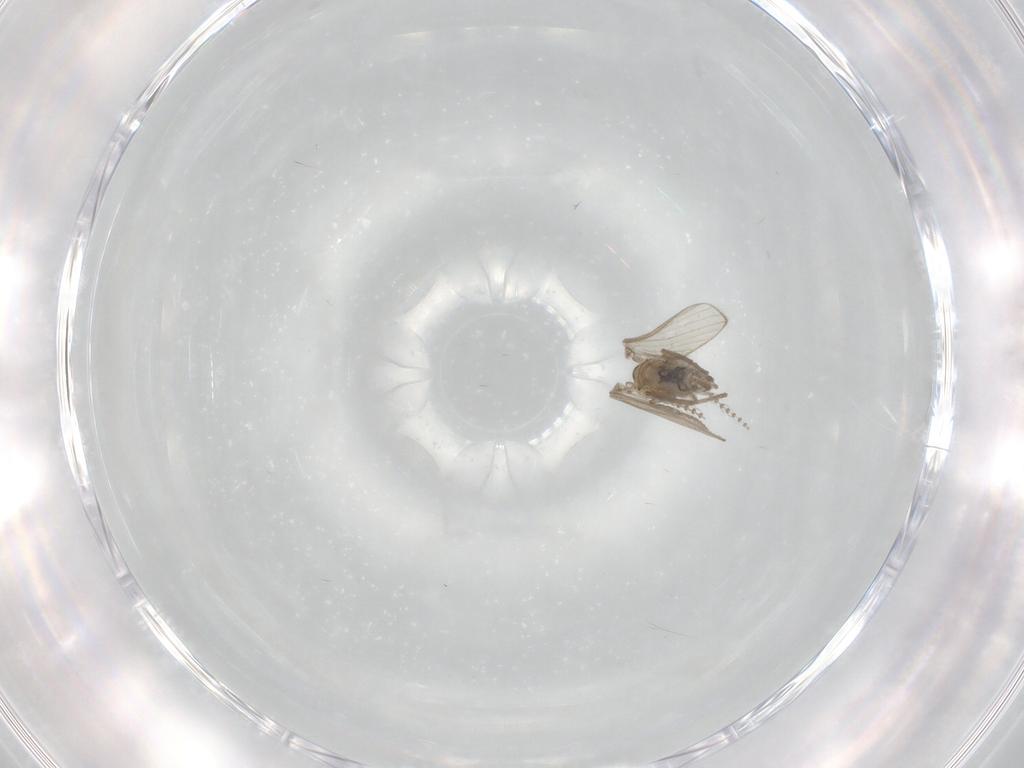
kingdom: Animalia
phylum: Arthropoda
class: Insecta
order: Diptera
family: Psychodidae
